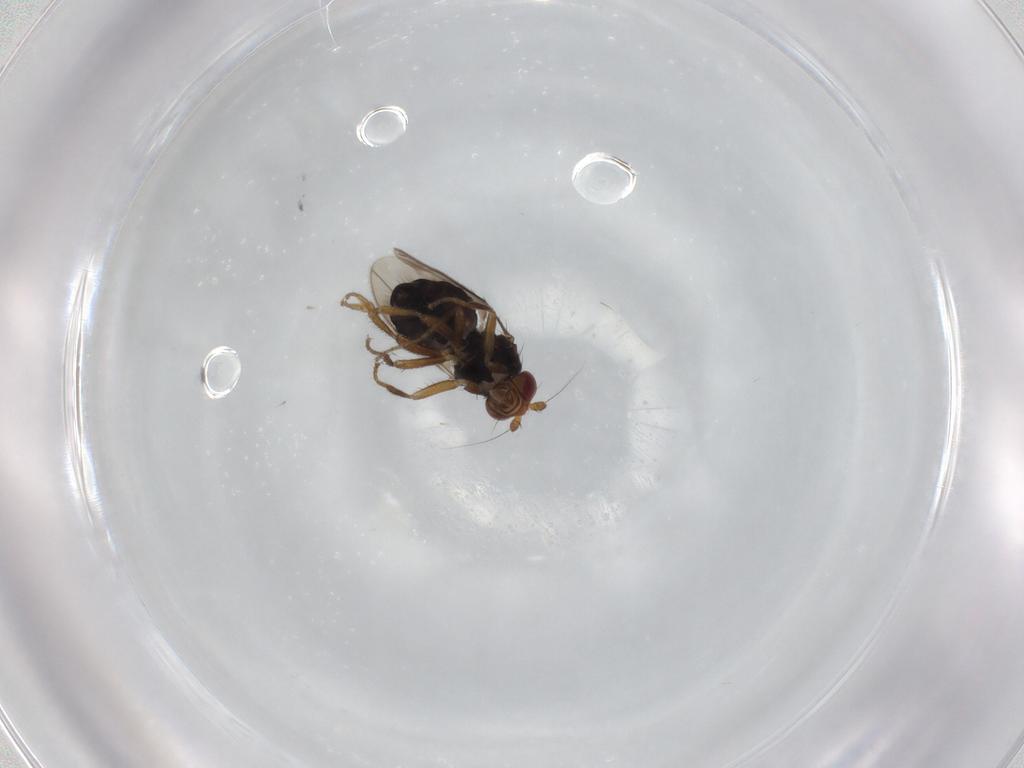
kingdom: Animalia
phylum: Arthropoda
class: Insecta
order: Diptera
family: Sphaeroceridae
